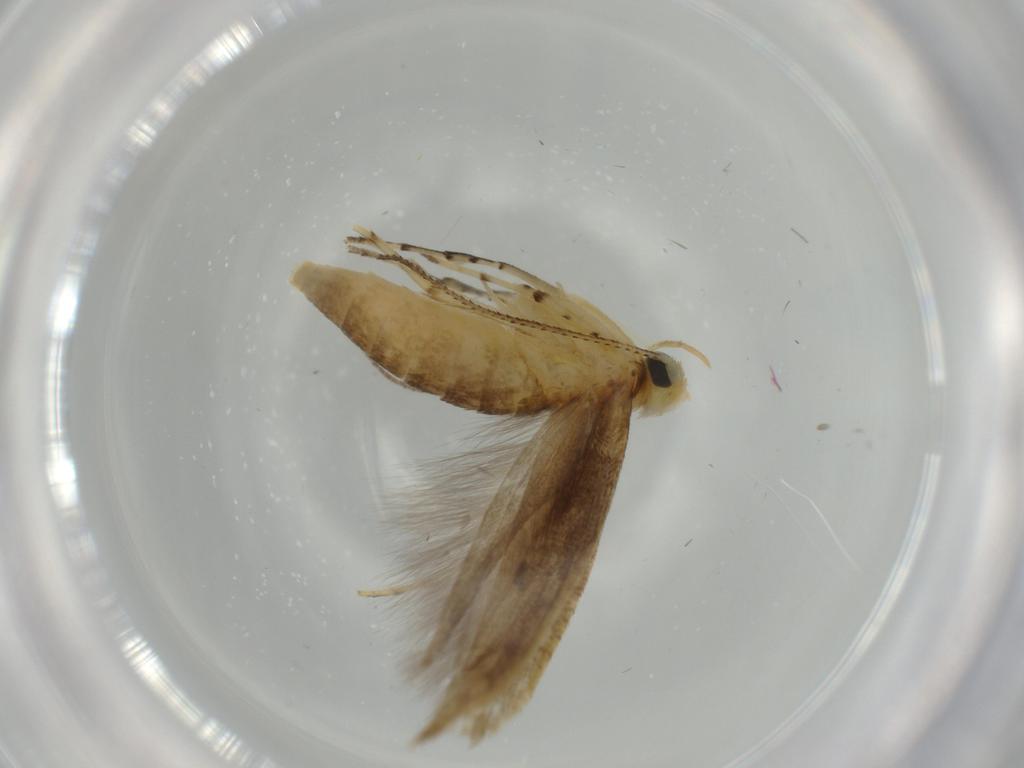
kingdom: Animalia
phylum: Arthropoda
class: Insecta
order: Lepidoptera
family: Argyresthiidae
